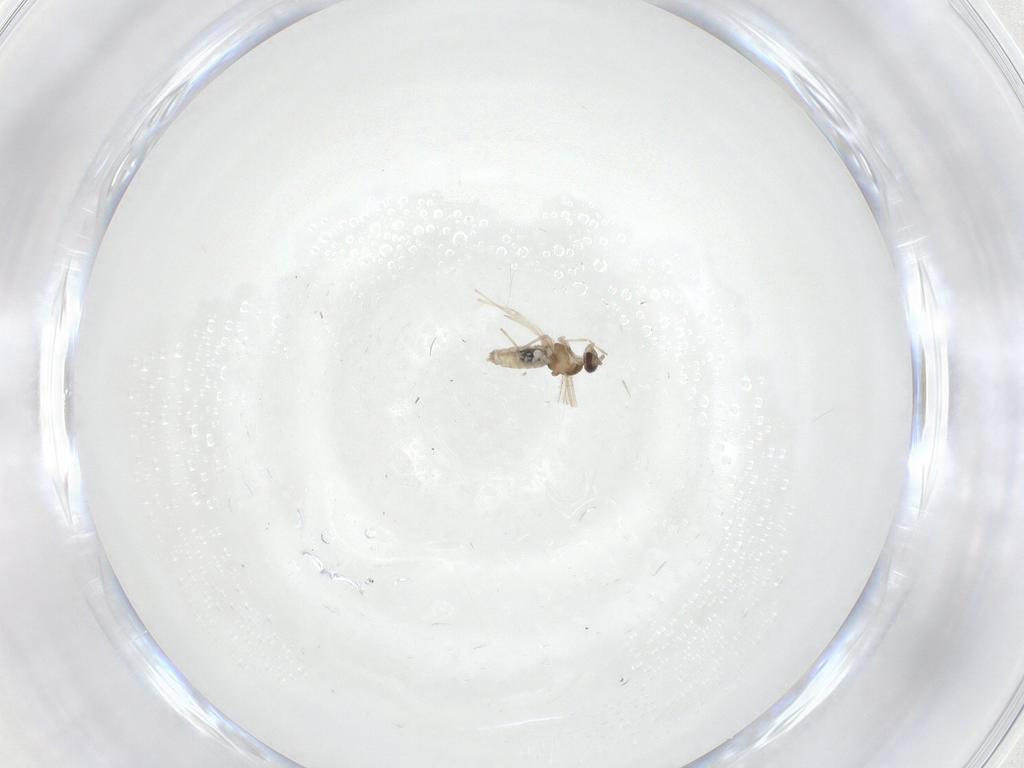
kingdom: Animalia
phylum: Arthropoda
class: Insecta
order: Diptera
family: Cecidomyiidae
